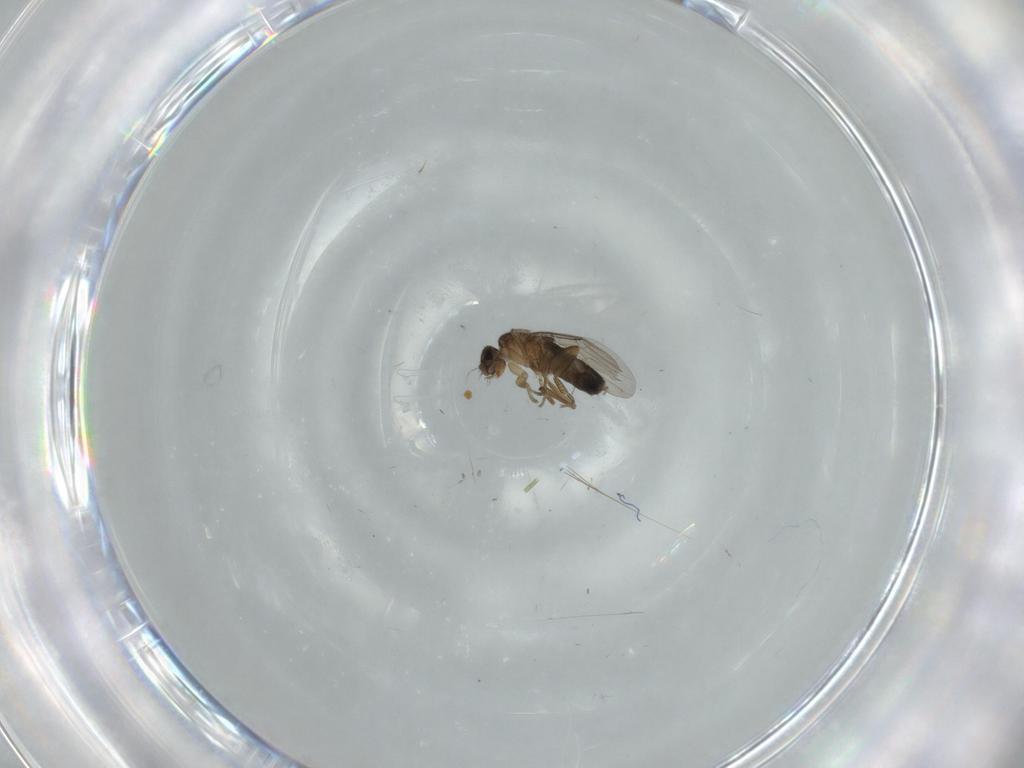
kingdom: Animalia
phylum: Arthropoda
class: Insecta
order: Diptera
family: Phoridae
